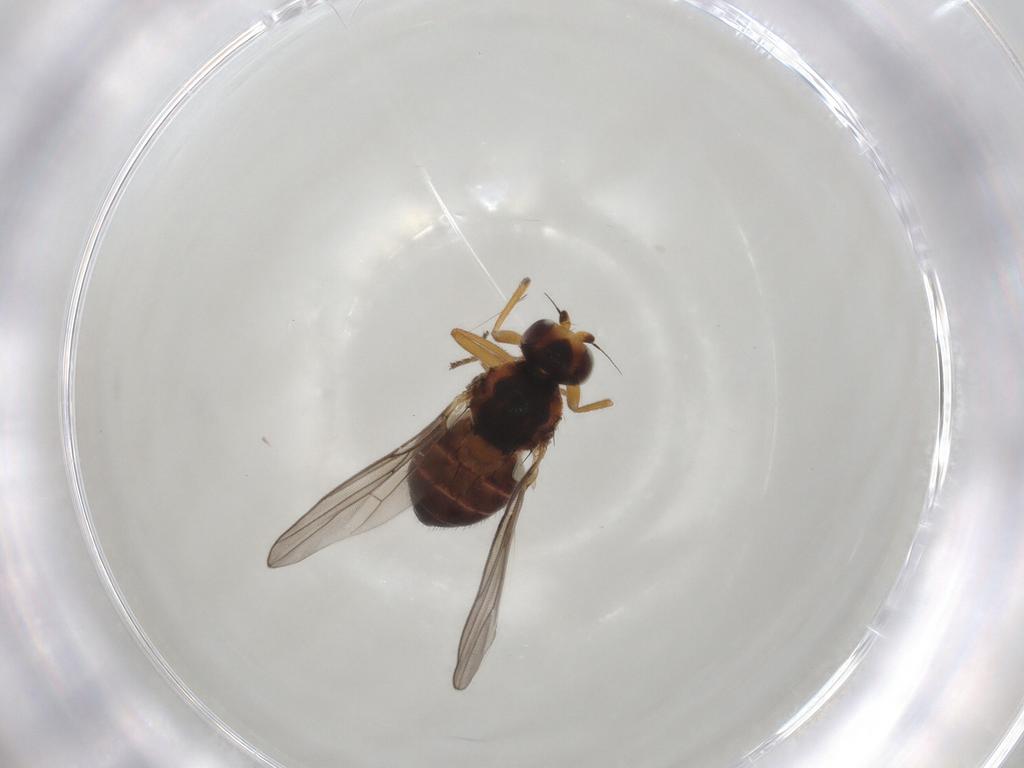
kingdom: Animalia
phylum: Arthropoda
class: Insecta
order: Diptera
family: Chloropidae
